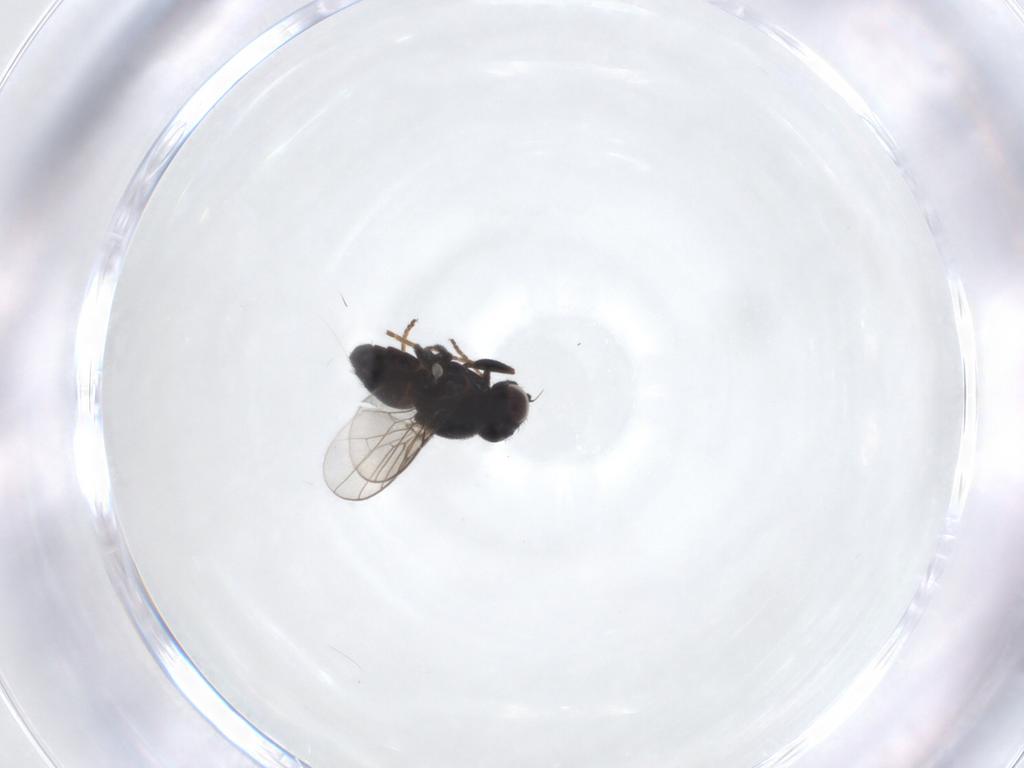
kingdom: Animalia
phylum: Arthropoda
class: Insecta
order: Diptera
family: Chloropidae
